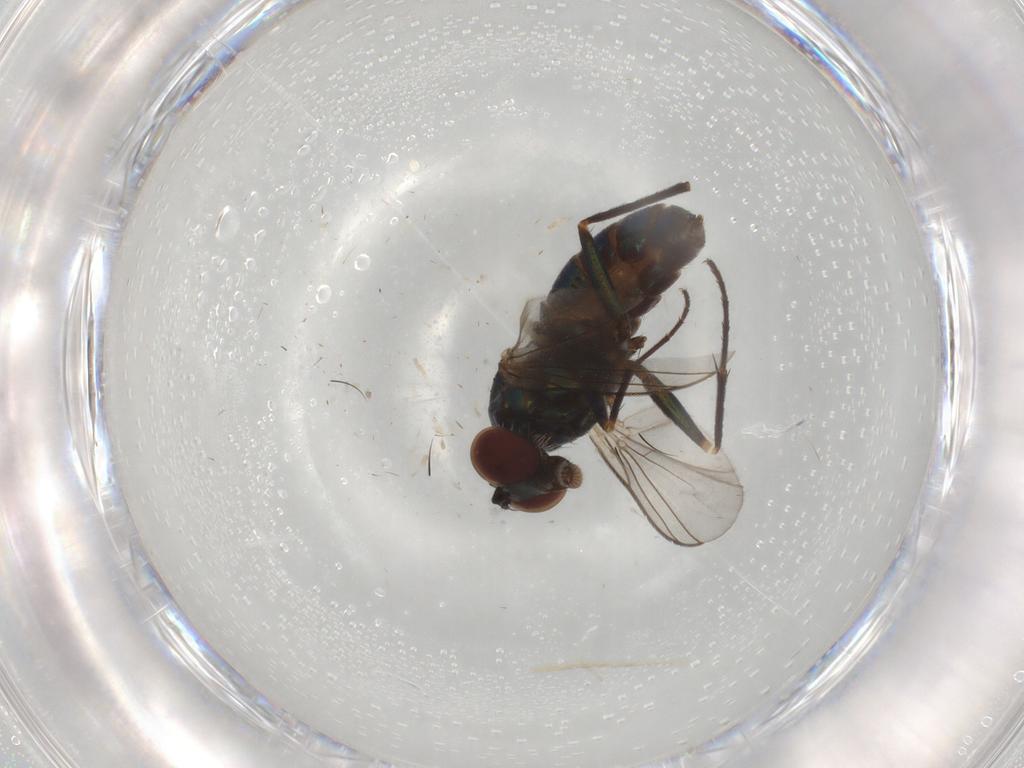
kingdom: Animalia
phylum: Arthropoda
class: Insecta
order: Diptera
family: Dolichopodidae
